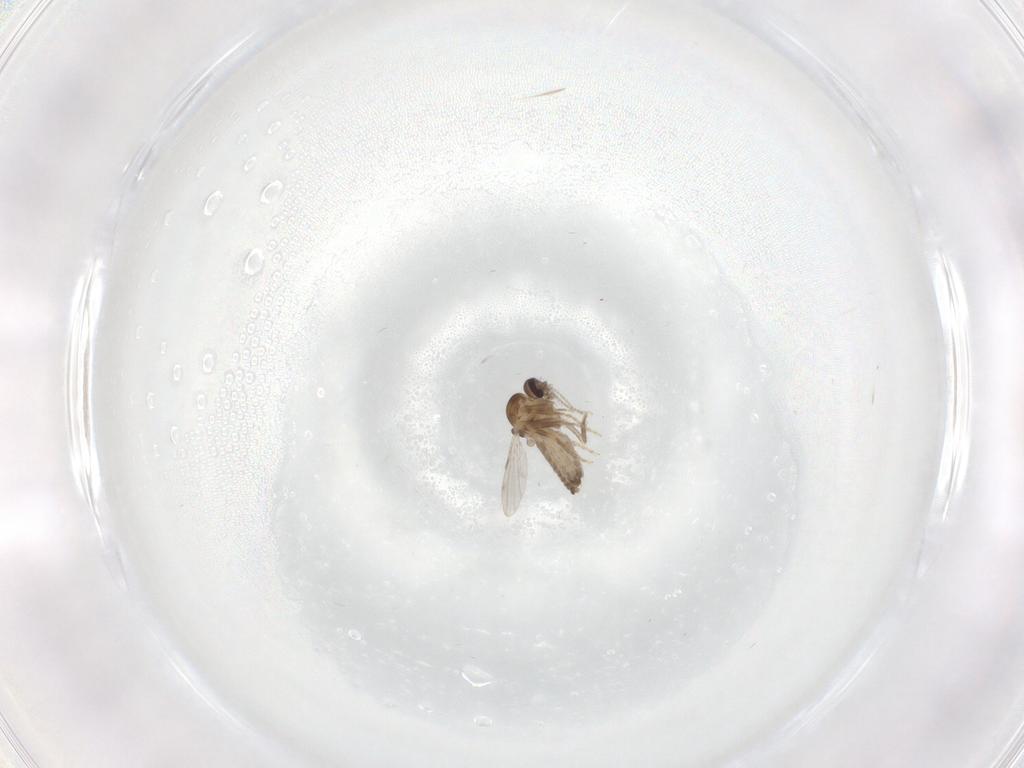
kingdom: Animalia
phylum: Arthropoda
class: Insecta
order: Diptera
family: Ceratopogonidae
